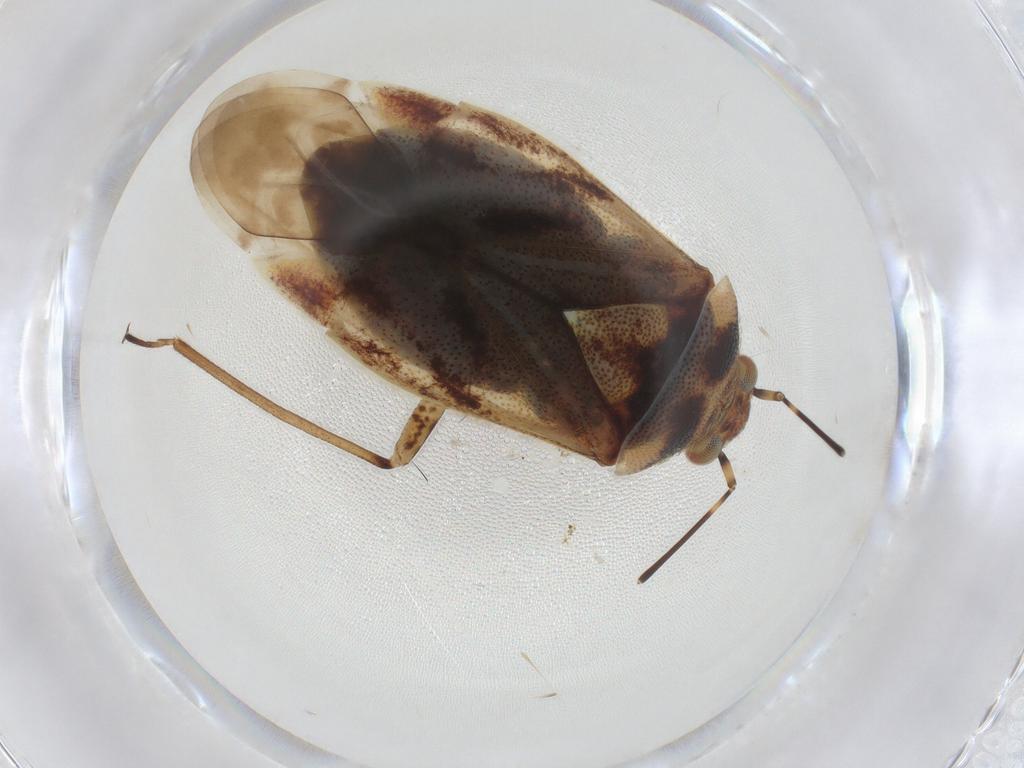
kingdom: Animalia
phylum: Arthropoda
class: Insecta
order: Hemiptera
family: Miridae
